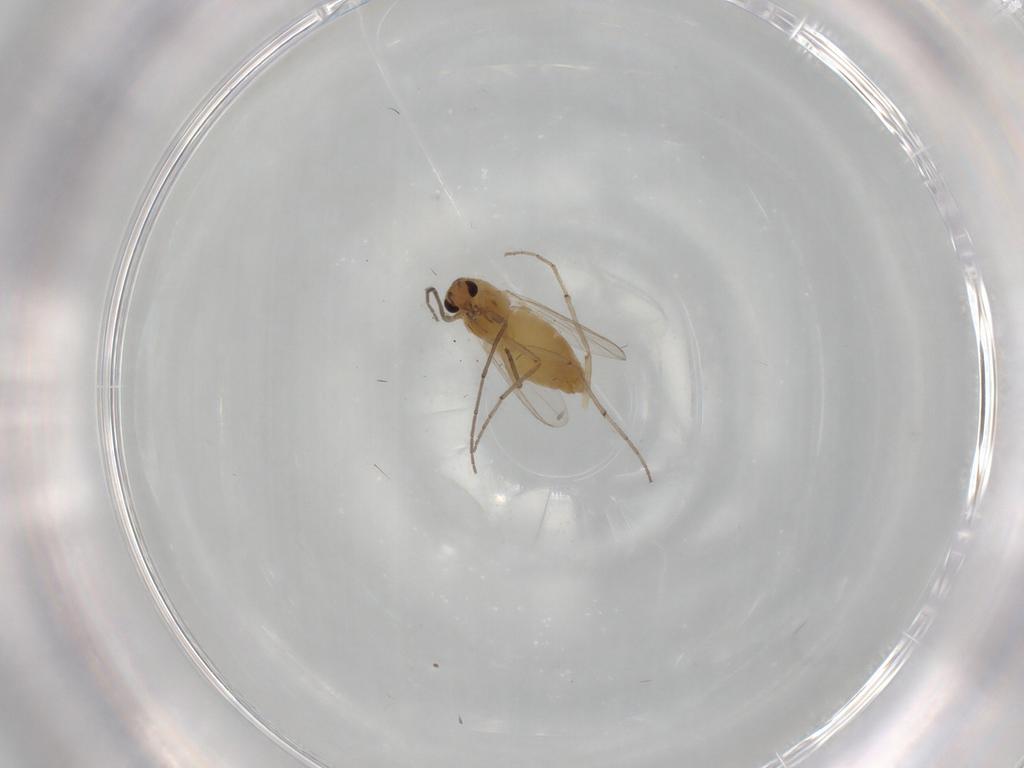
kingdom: Animalia
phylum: Arthropoda
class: Insecta
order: Diptera
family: Chironomidae
